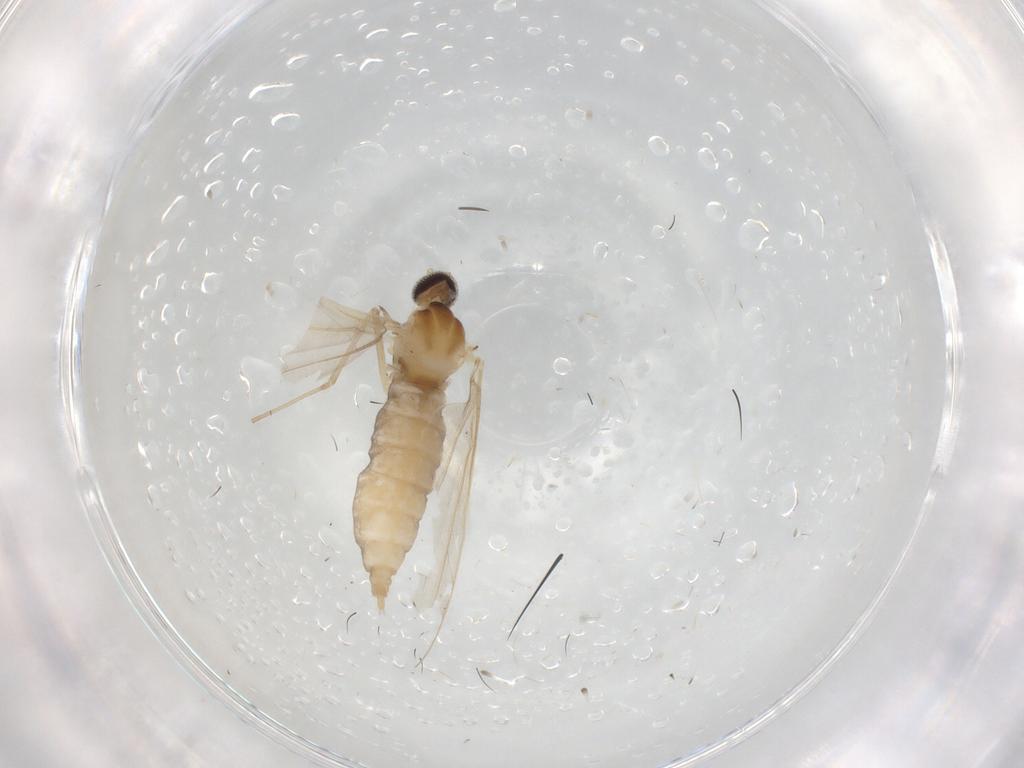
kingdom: Animalia
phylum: Arthropoda
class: Insecta
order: Diptera
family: Cecidomyiidae
